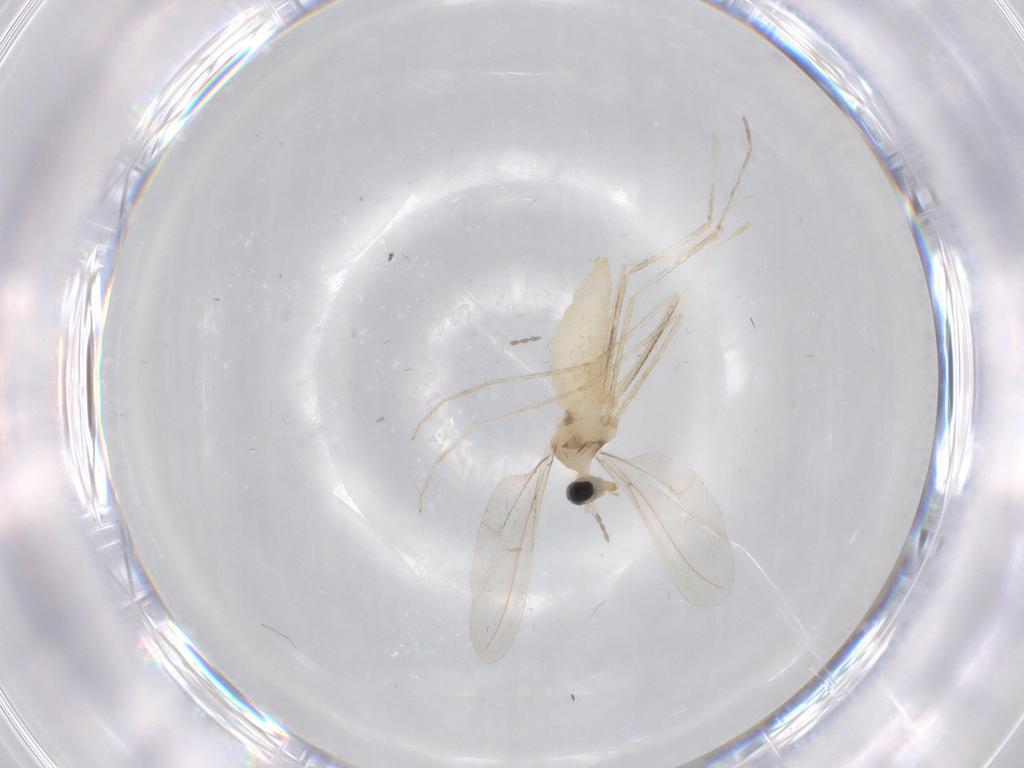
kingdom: Animalia
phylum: Arthropoda
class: Insecta
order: Diptera
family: Cecidomyiidae
